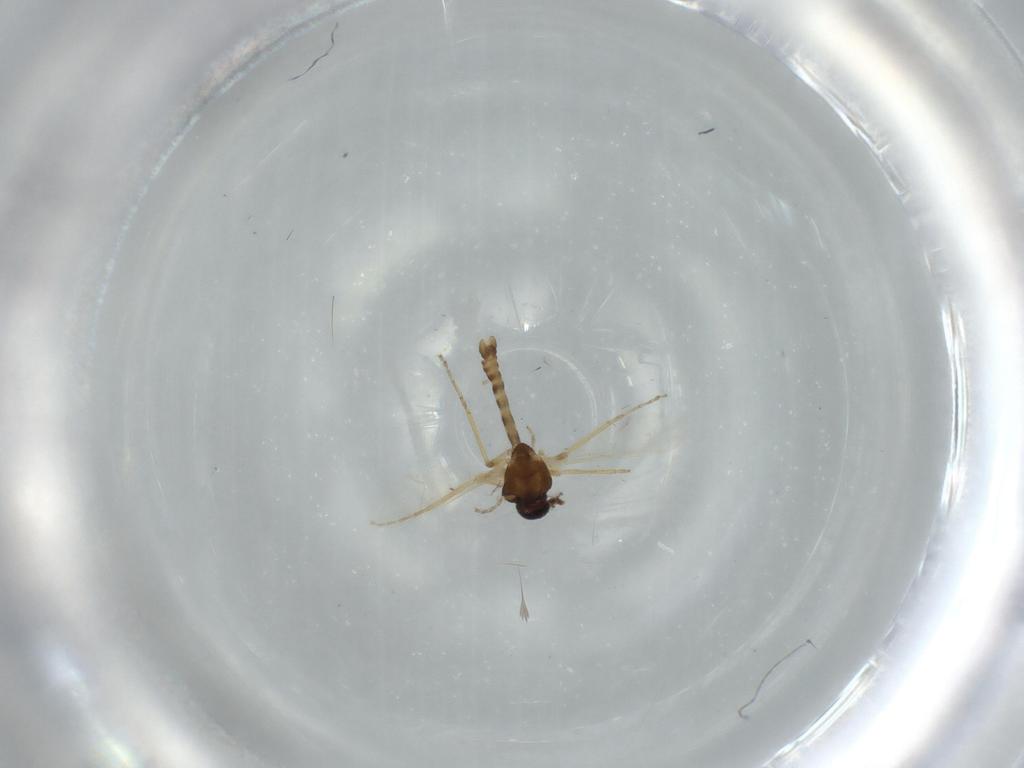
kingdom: Animalia
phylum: Arthropoda
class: Insecta
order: Diptera
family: Ceratopogonidae
